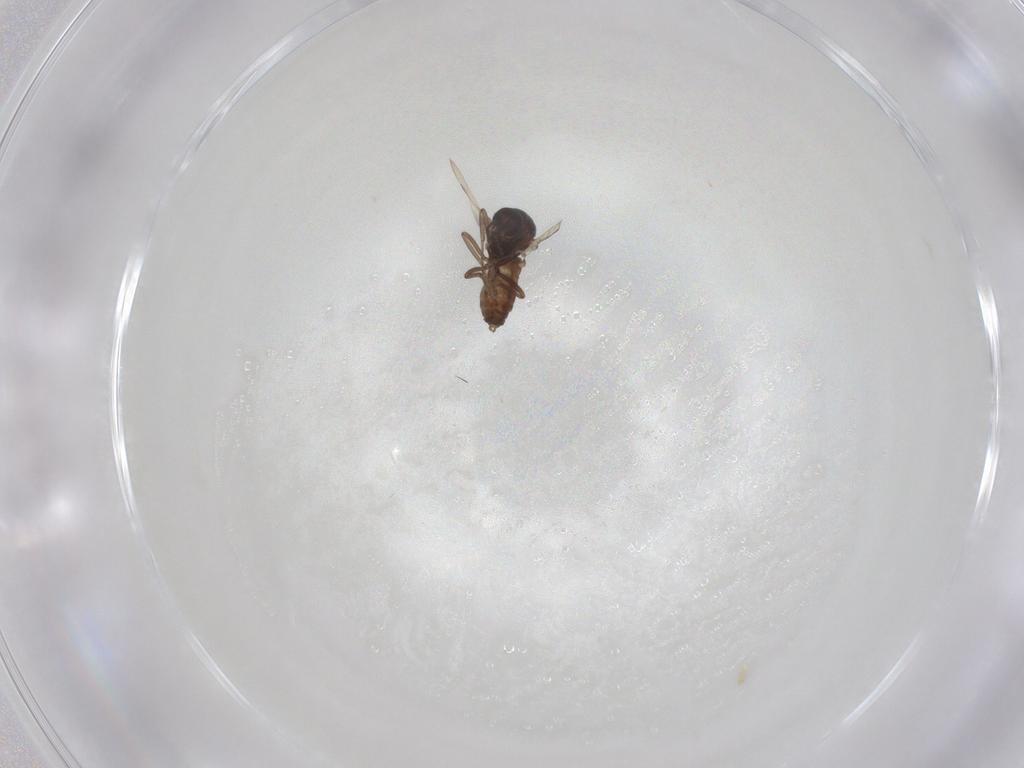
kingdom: Animalia
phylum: Arthropoda
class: Insecta
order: Diptera
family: Ceratopogonidae
